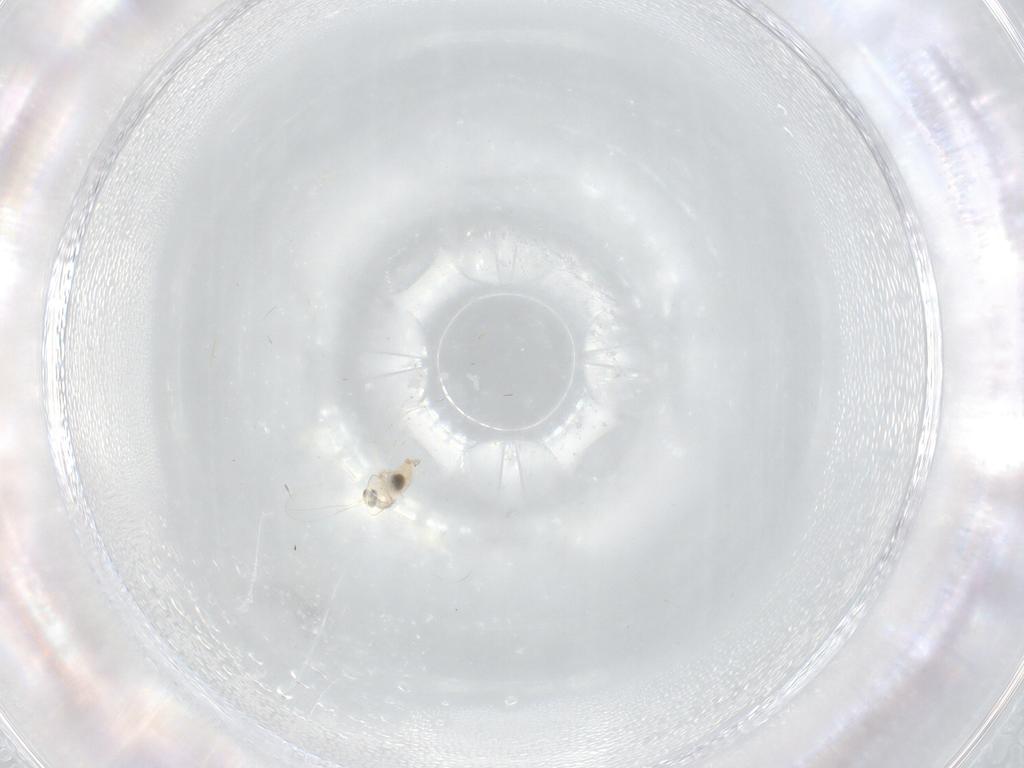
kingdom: Animalia
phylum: Arthropoda
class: Insecta
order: Diptera
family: Cecidomyiidae
